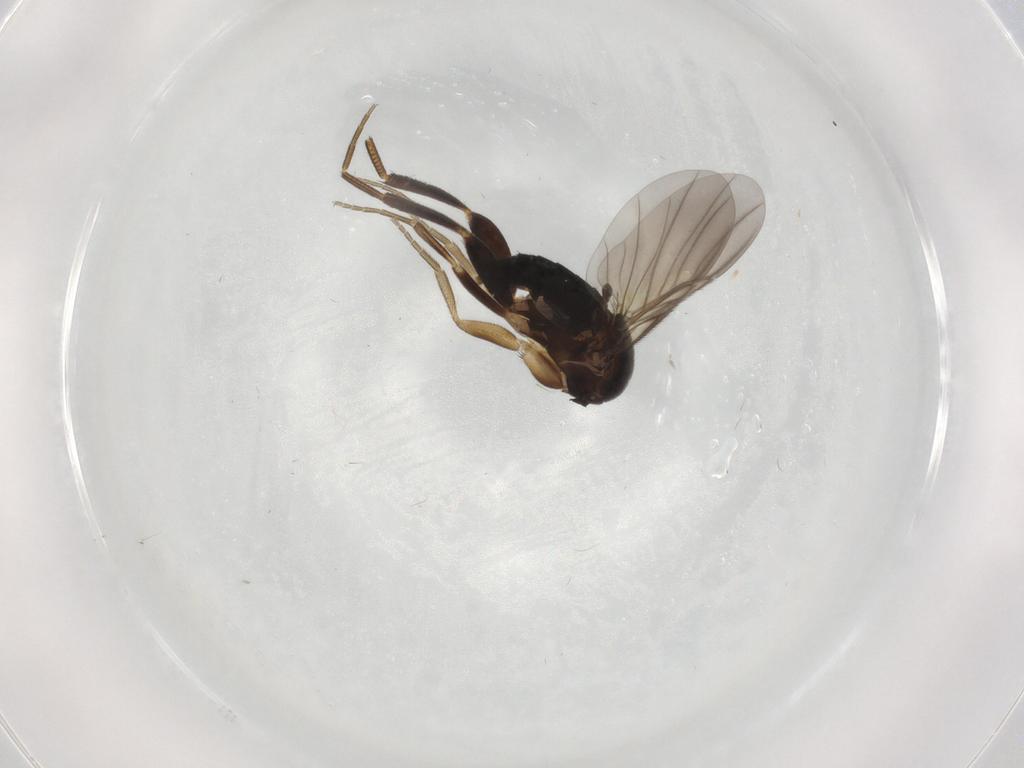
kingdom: Animalia
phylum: Arthropoda
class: Insecta
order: Diptera
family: Phoridae
